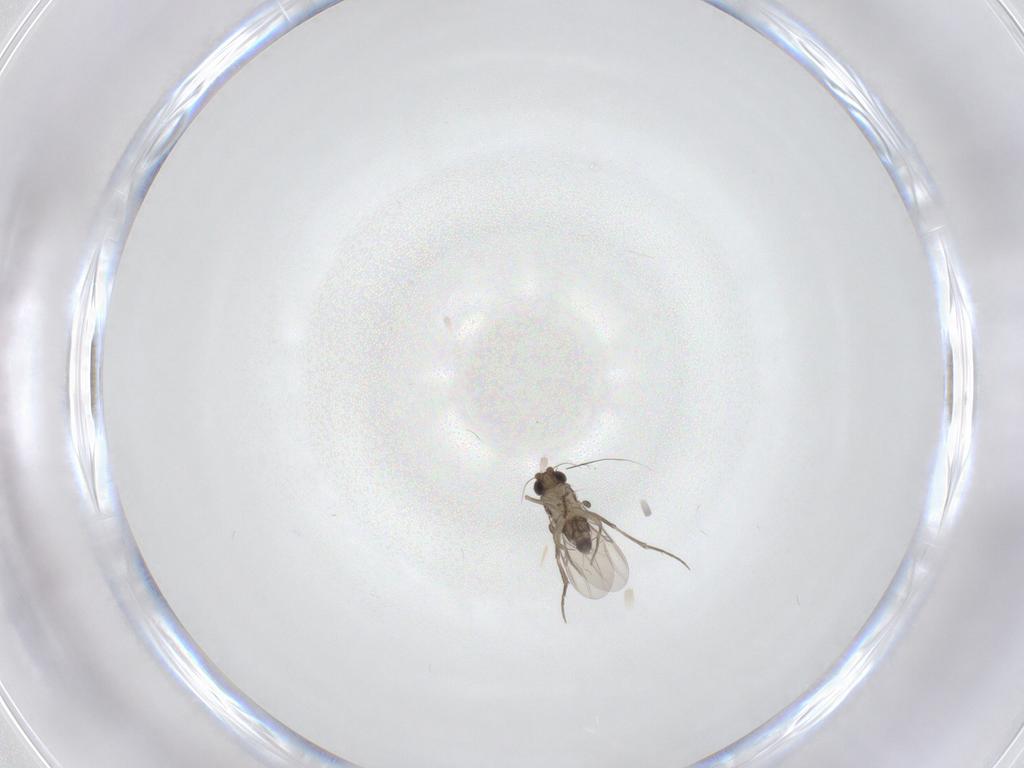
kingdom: Animalia
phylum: Arthropoda
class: Insecta
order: Diptera
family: Phoridae
